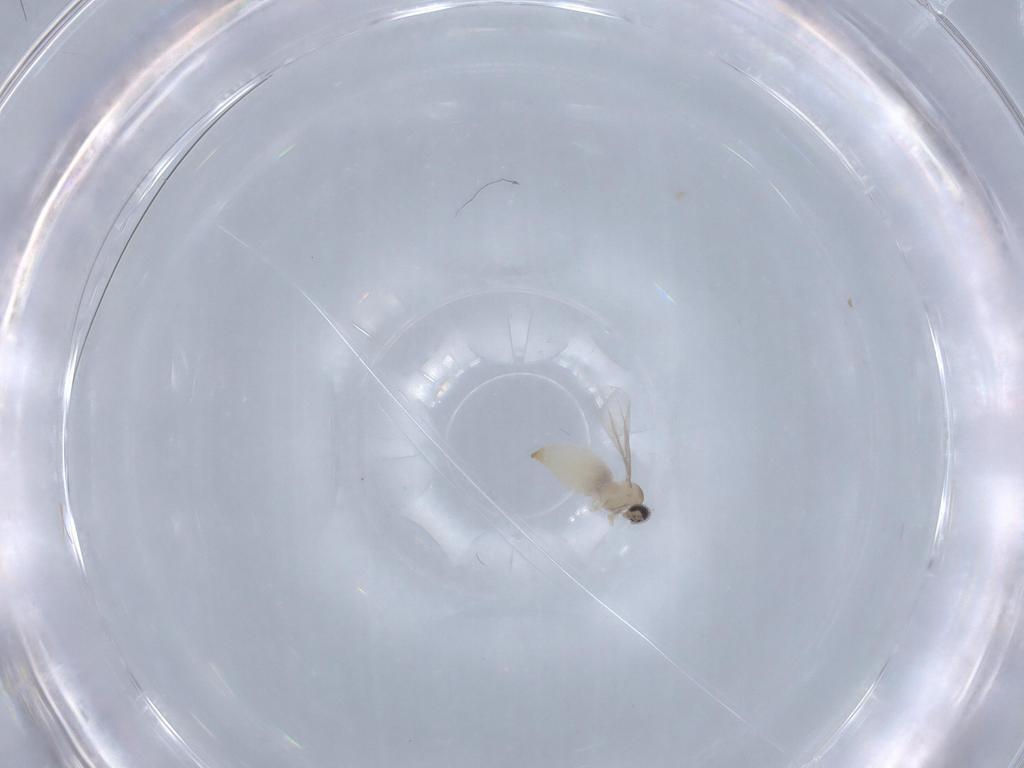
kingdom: Animalia
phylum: Arthropoda
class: Insecta
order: Diptera
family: Cecidomyiidae
